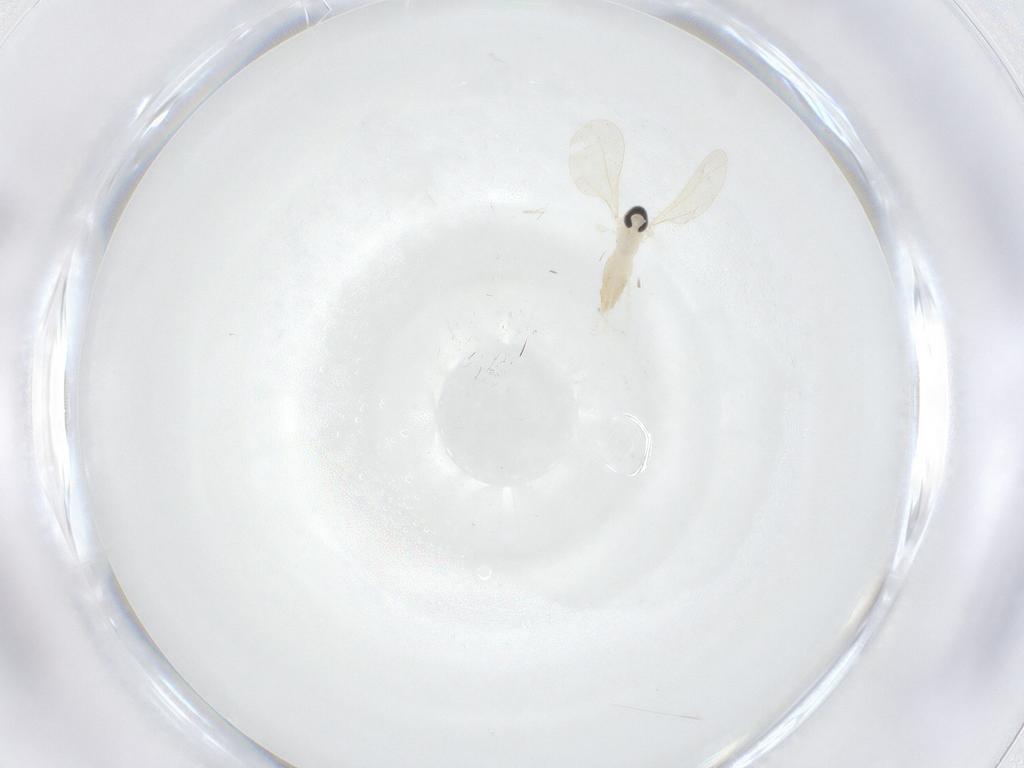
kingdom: Animalia
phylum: Arthropoda
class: Insecta
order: Diptera
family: Cecidomyiidae
